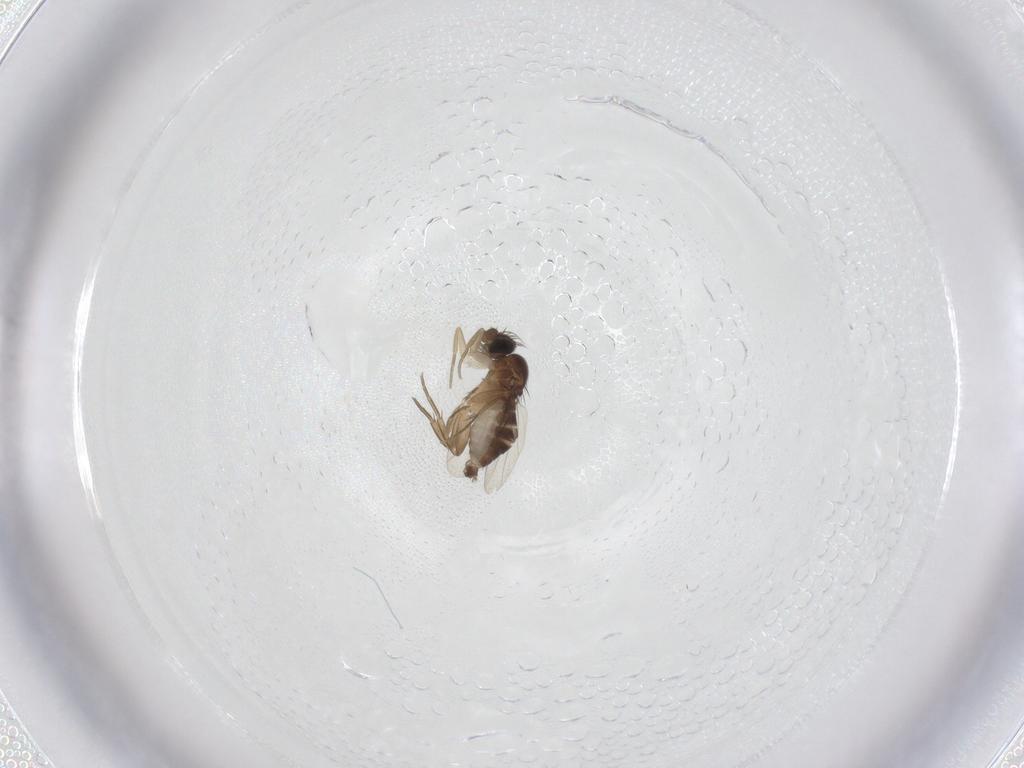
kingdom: Animalia
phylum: Arthropoda
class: Insecta
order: Diptera
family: Phoridae
